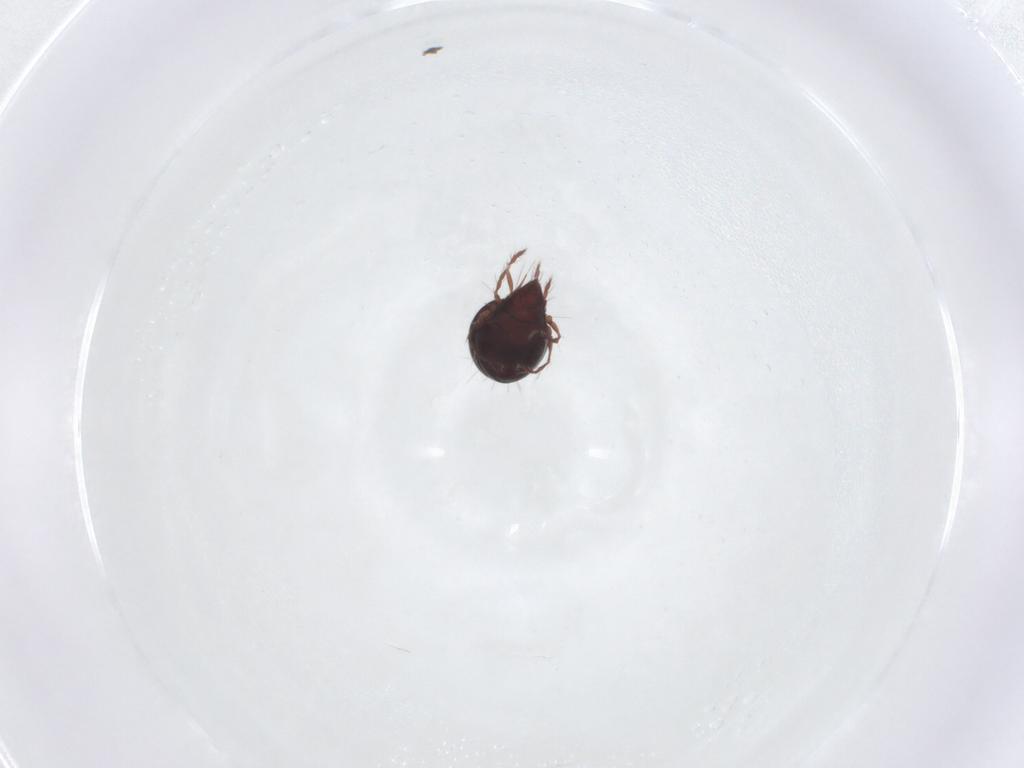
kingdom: Animalia
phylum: Arthropoda
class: Arachnida
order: Sarcoptiformes
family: Ceratoppiidae
